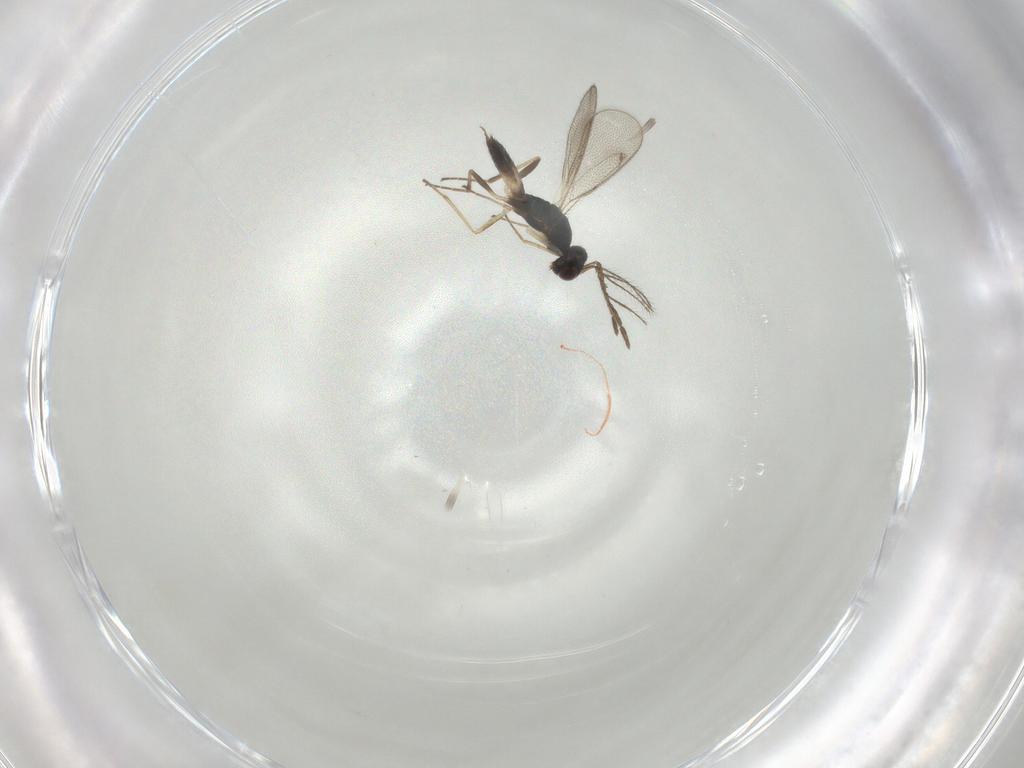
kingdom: Animalia
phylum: Arthropoda
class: Insecta
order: Hymenoptera
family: Eulophidae
